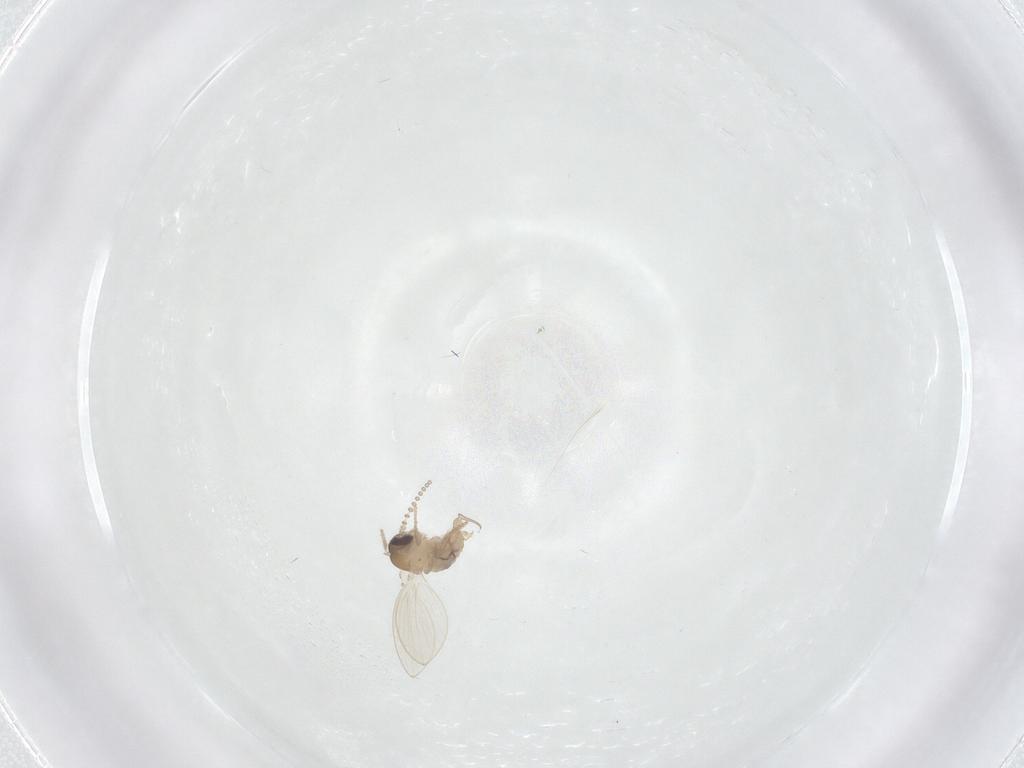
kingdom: Animalia
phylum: Arthropoda
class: Insecta
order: Diptera
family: Psychodidae
